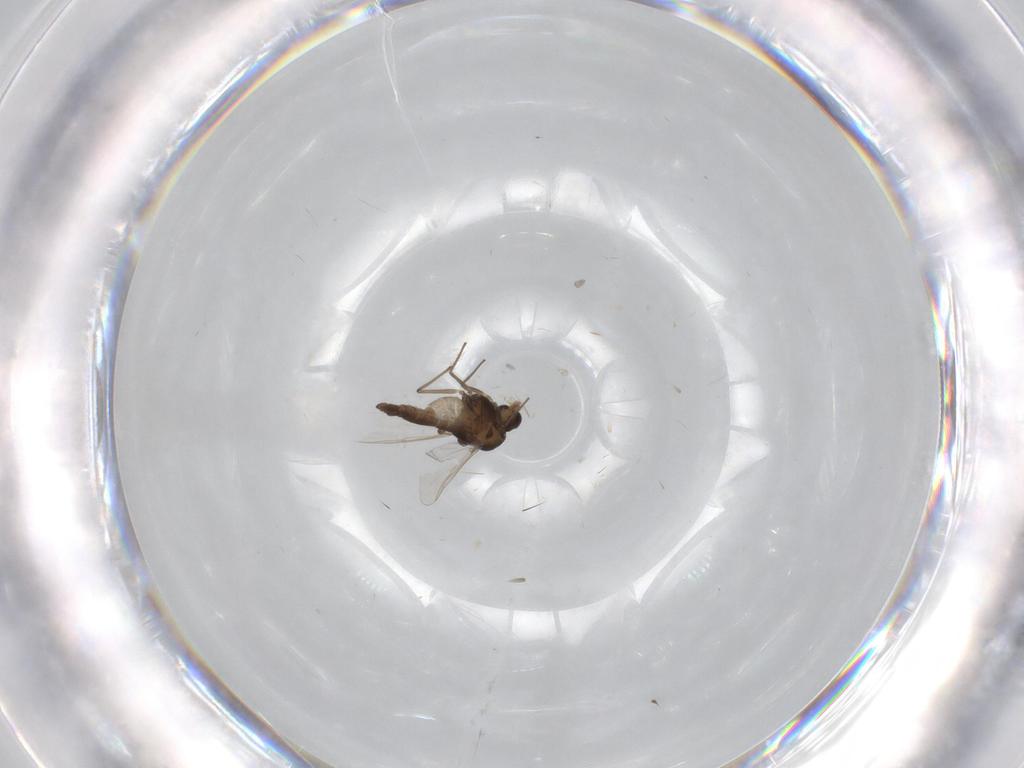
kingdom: Animalia
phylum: Arthropoda
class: Insecta
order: Diptera
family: Chironomidae
